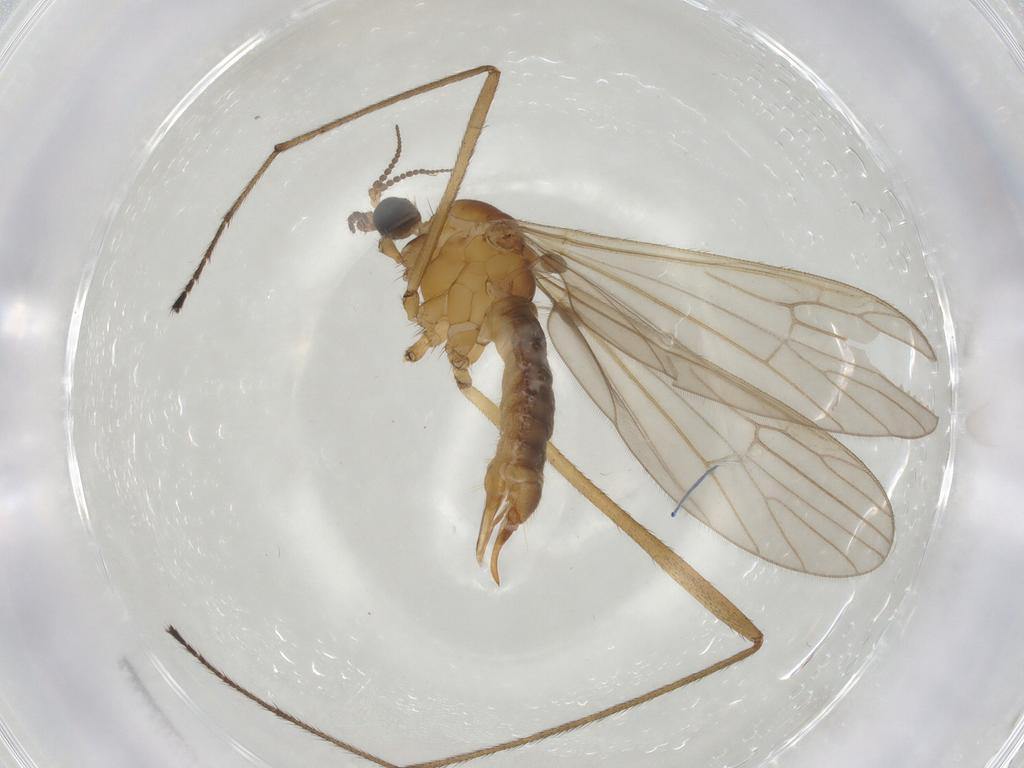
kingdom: Animalia
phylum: Arthropoda
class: Insecta
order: Diptera
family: Limoniidae
